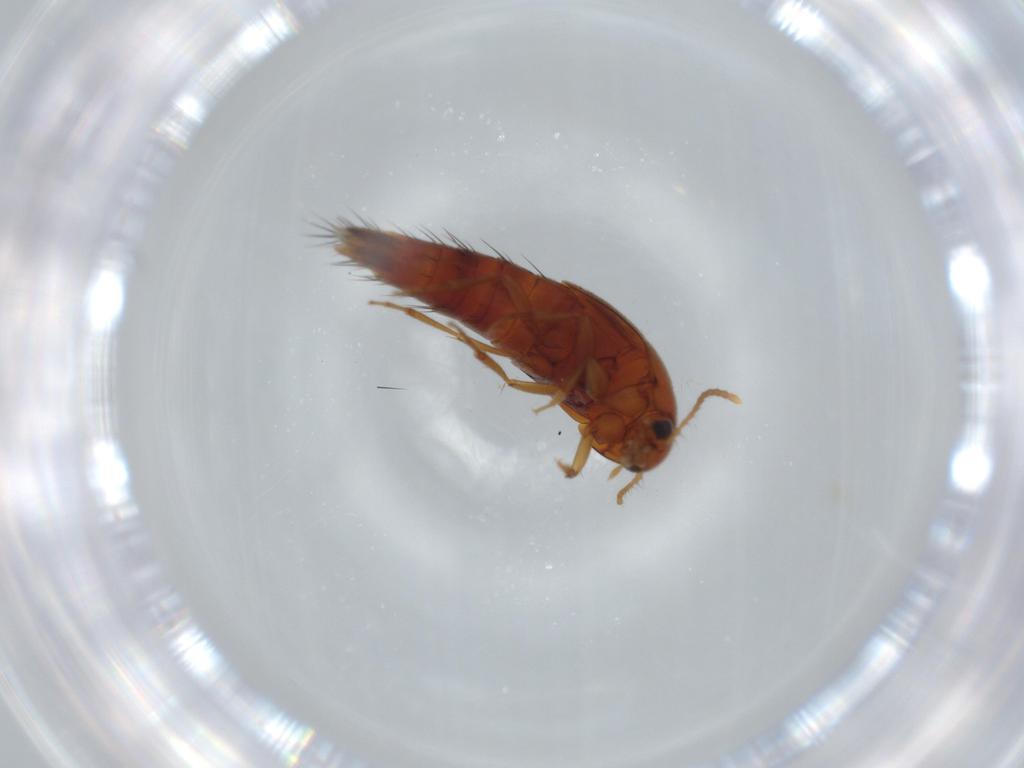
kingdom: Animalia
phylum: Arthropoda
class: Insecta
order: Coleoptera
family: Staphylinidae
